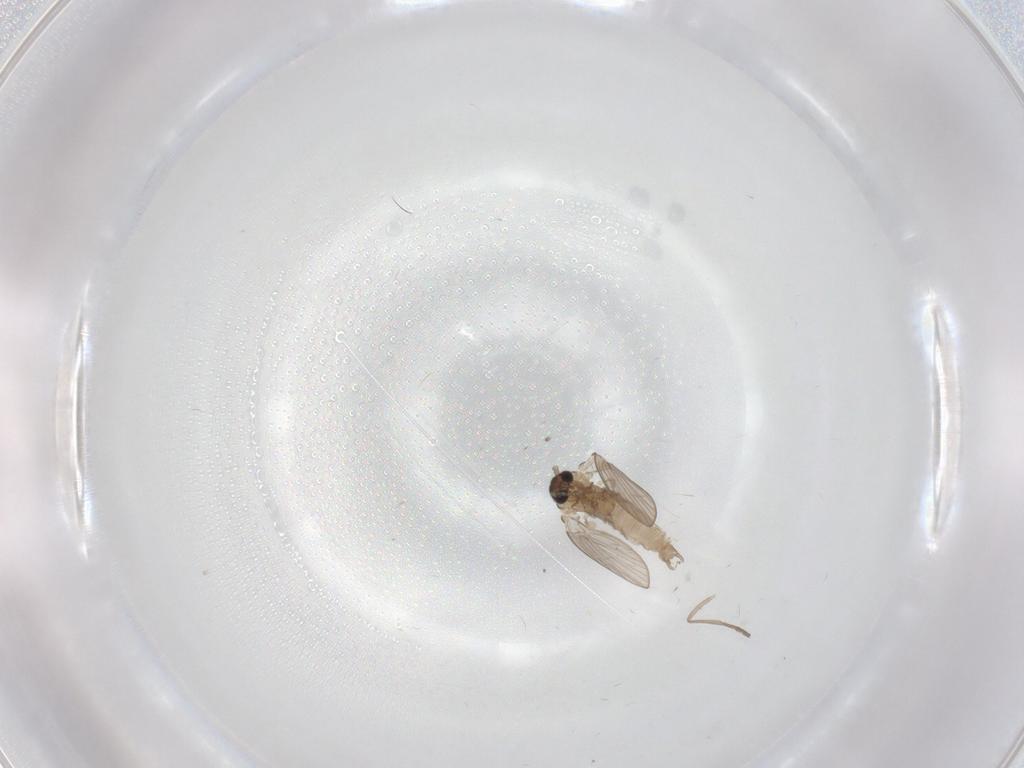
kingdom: Animalia
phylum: Arthropoda
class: Insecta
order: Diptera
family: Psychodidae
